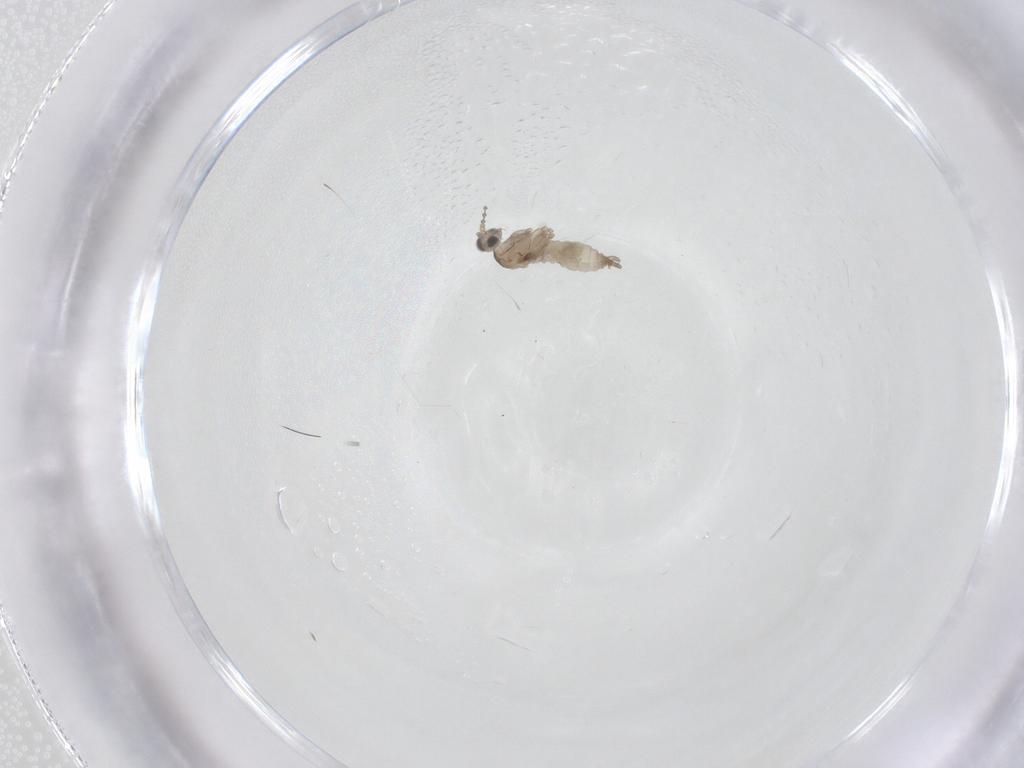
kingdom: Animalia
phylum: Arthropoda
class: Insecta
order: Diptera
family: Cecidomyiidae
